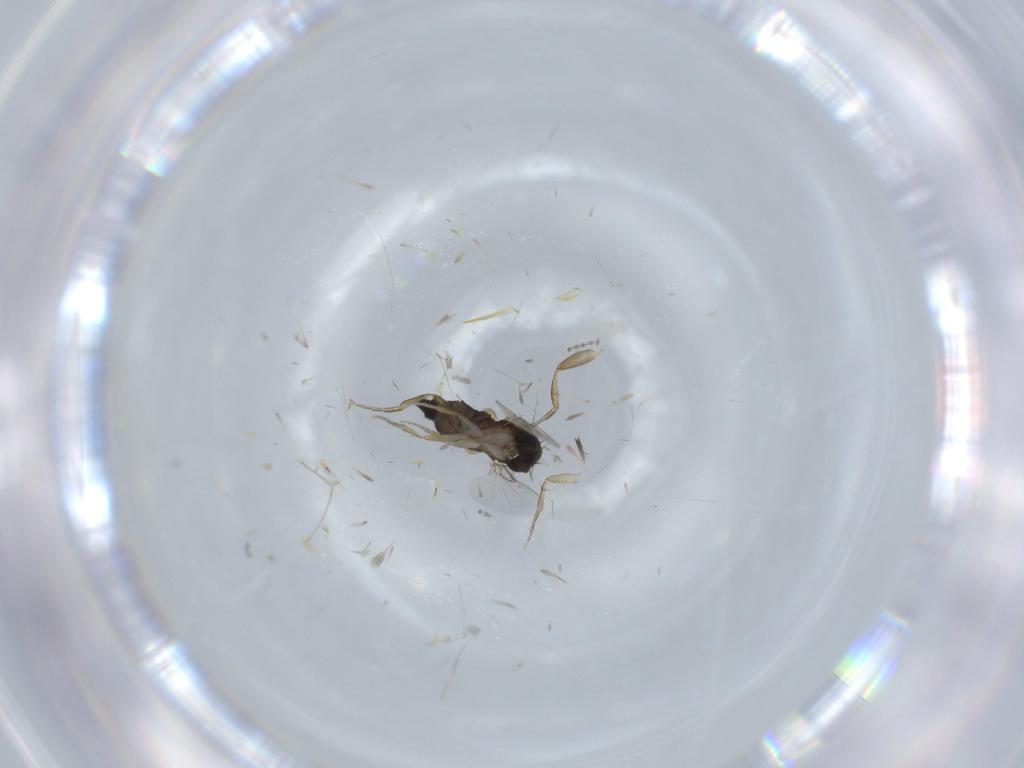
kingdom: Animalia
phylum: Arthropoda
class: Insecta
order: Diptera
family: Phoridae
